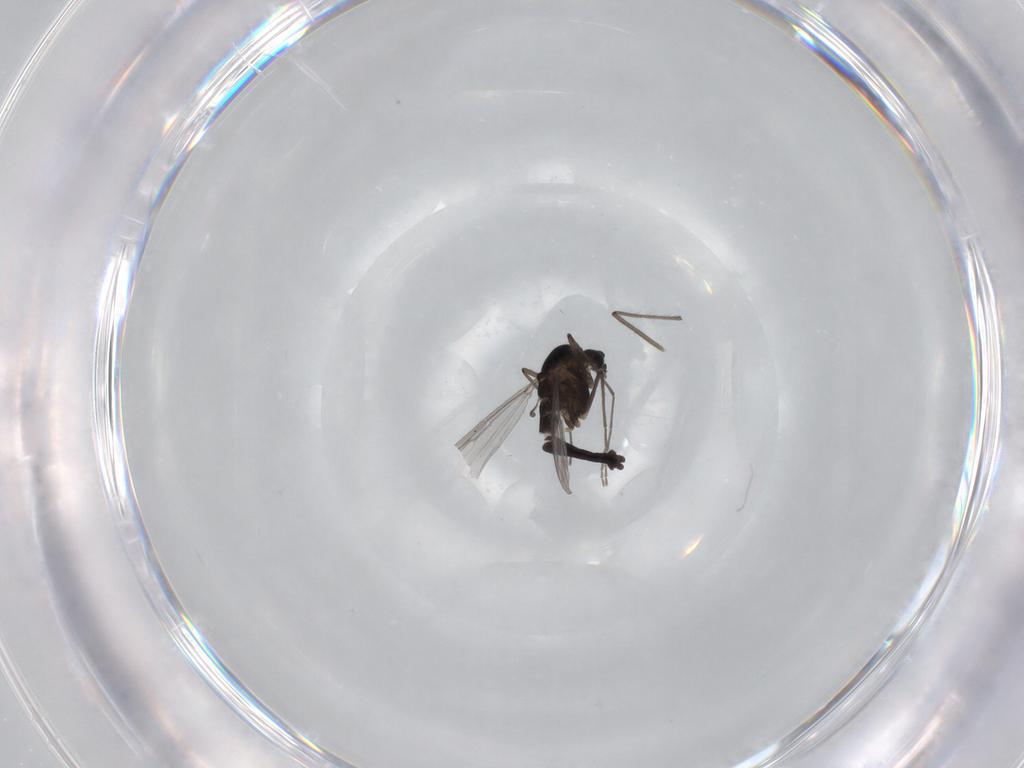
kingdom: Animalia
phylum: Arthropoda
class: Insecta
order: Diptera
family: Chironomidae
